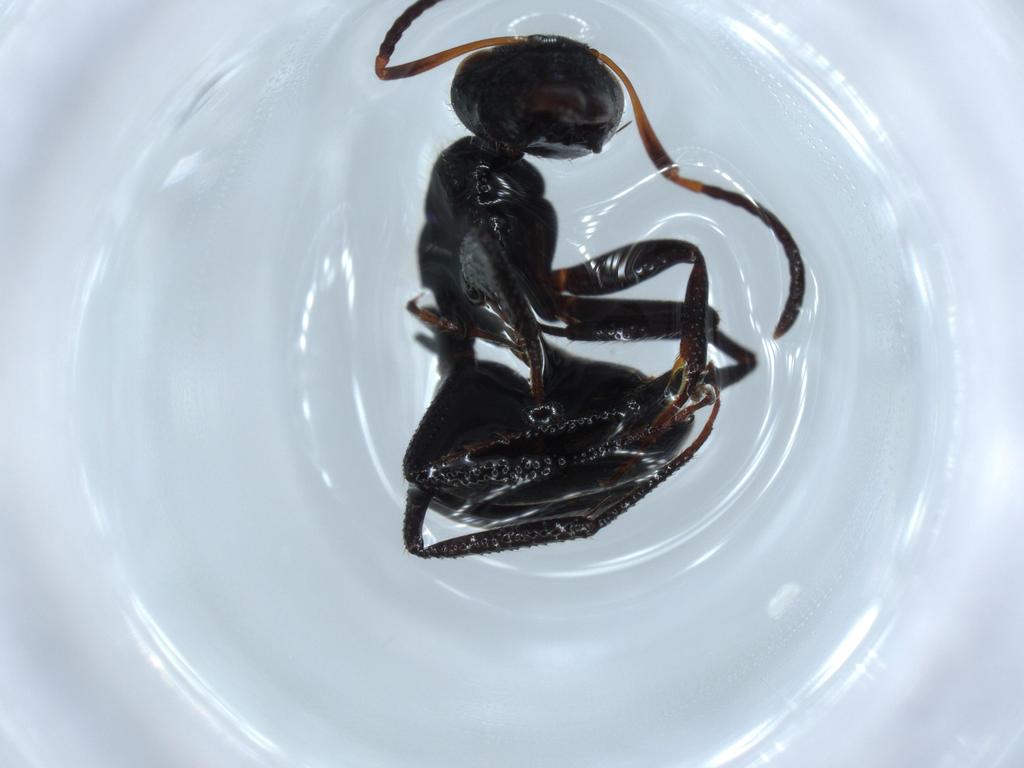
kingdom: Animalia
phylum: Arthropoda
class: Insecta
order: Hymenoptera
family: Formicidae
